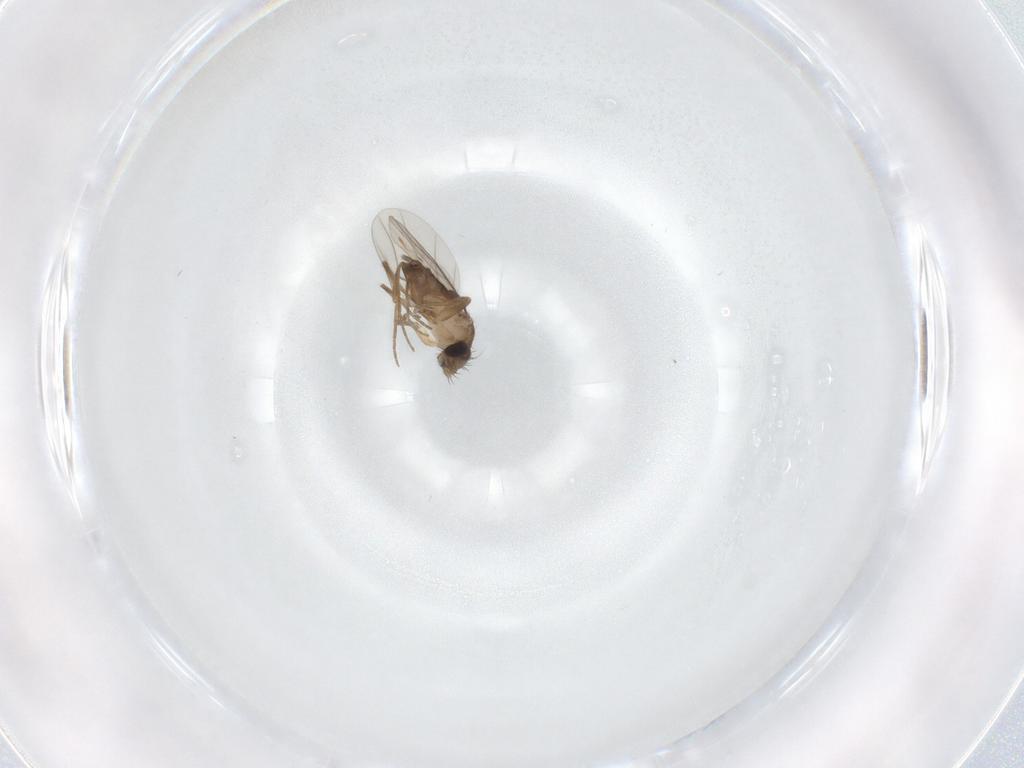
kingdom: Animalia
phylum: Arthropoda
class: Insecta
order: Diptera
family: Phoridae
